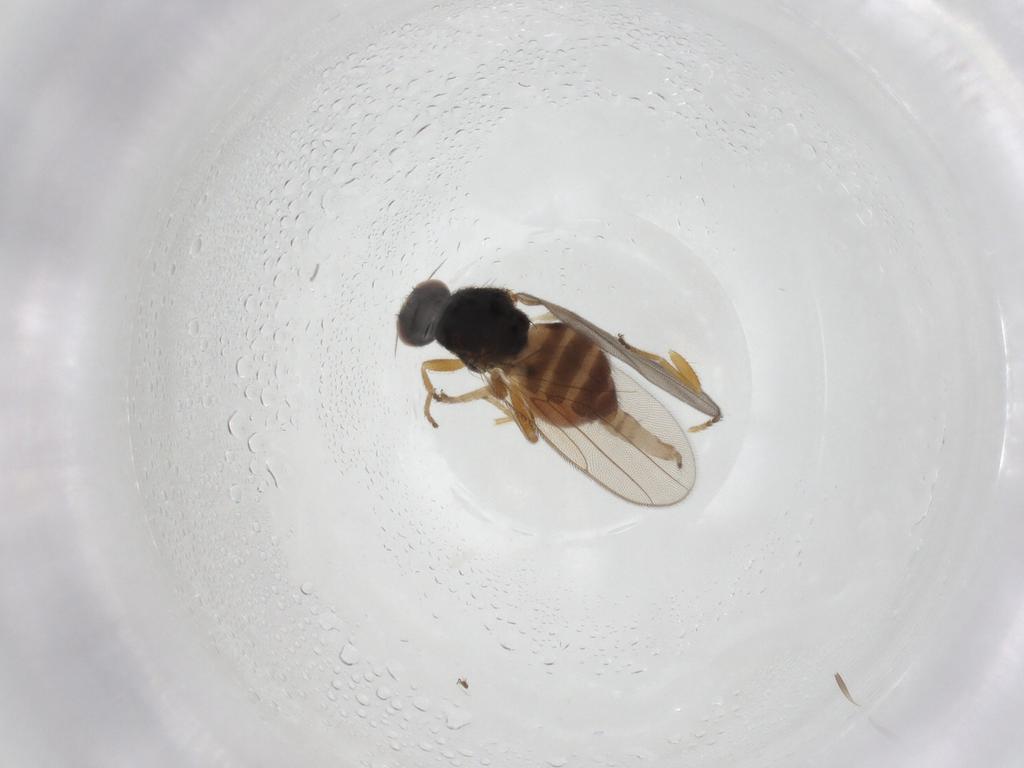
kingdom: Animalia
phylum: Arthropoda
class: Insecta
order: Diptera
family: Chloropidae
